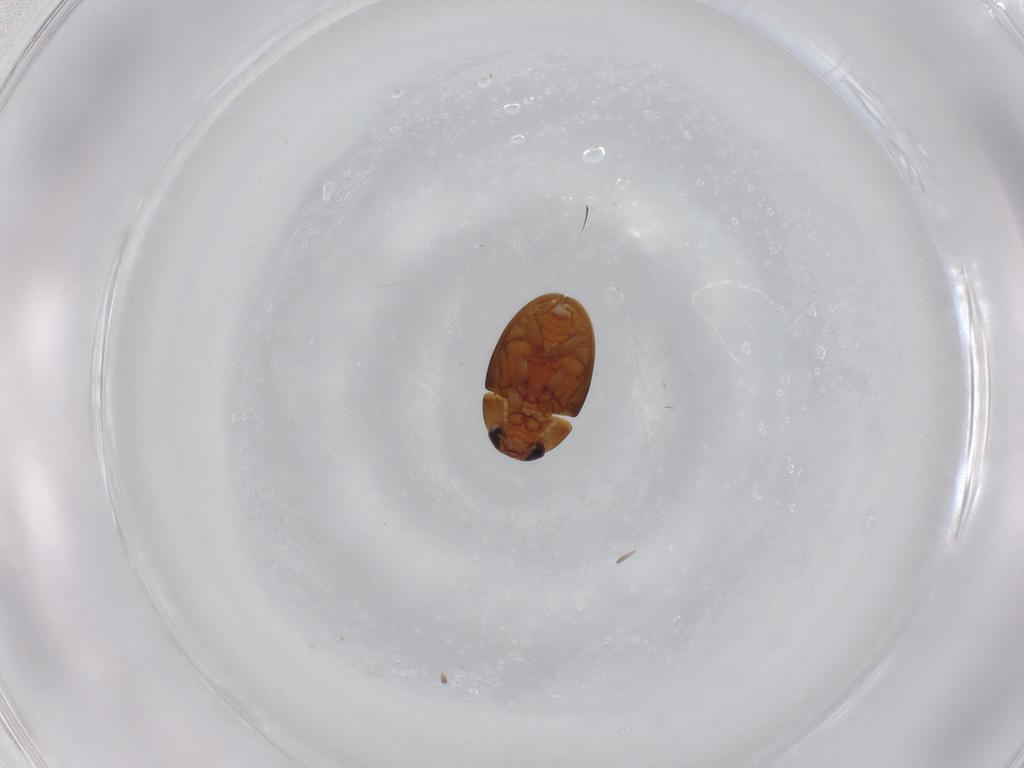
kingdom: Animalia
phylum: Arthropoda
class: Insecta
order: Coleoptera
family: Phalacridae
